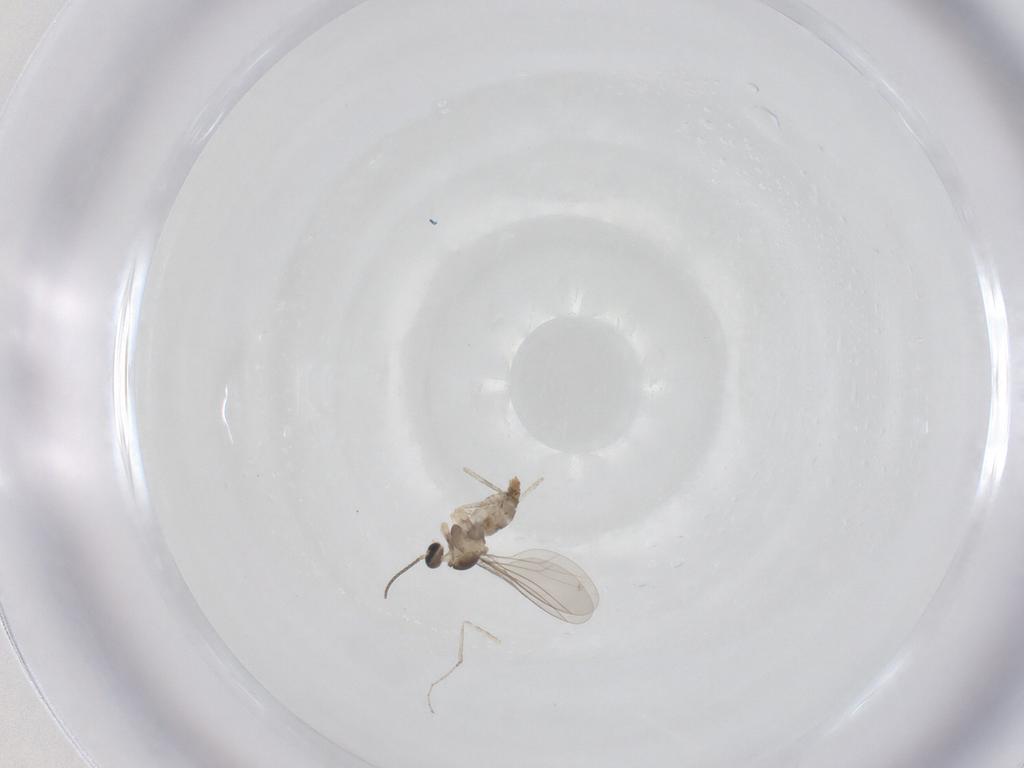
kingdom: Animalia
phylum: Arthropoda
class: Insecta
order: Diptera
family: Cecidomyiidae
